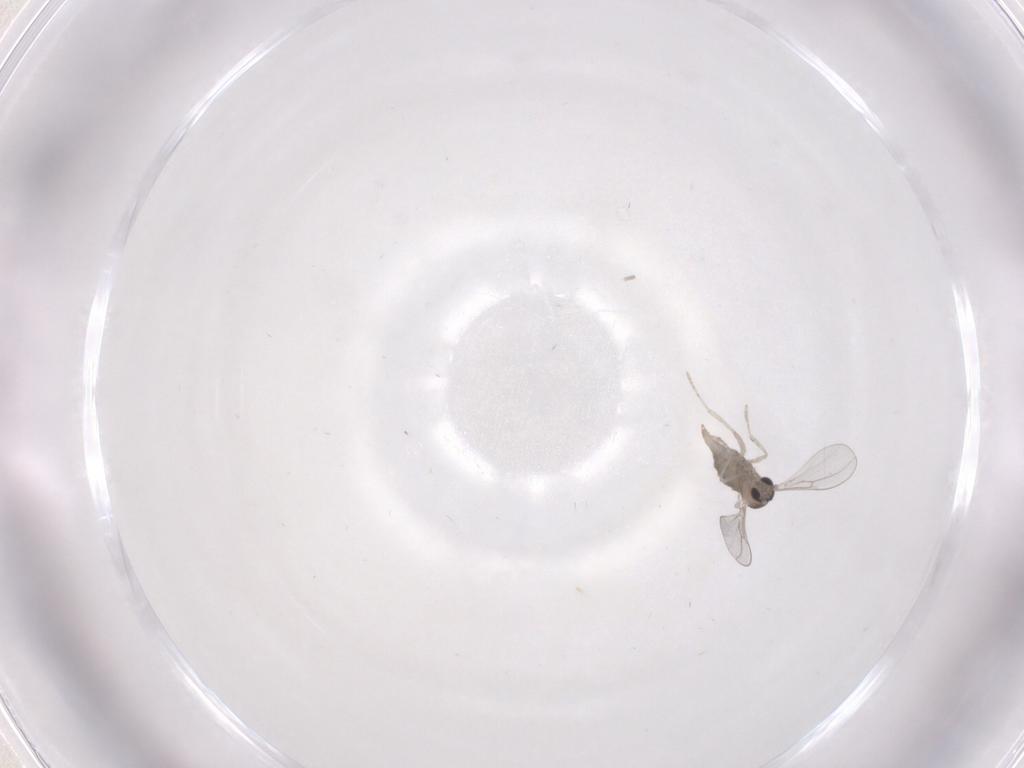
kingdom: Animalia
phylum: Arthropoda
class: Insecta
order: Diptera
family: Cecidomyiidae
